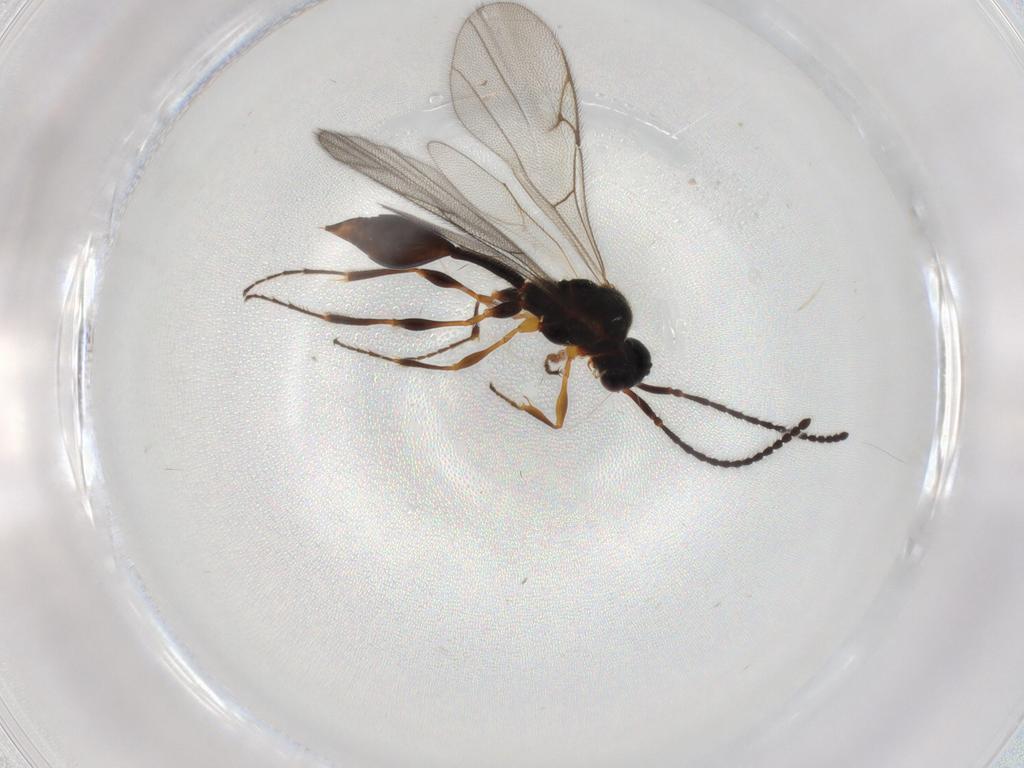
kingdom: Animalia
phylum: Arthropoda
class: Insecta
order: Hymenoptera
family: Diapriidae
